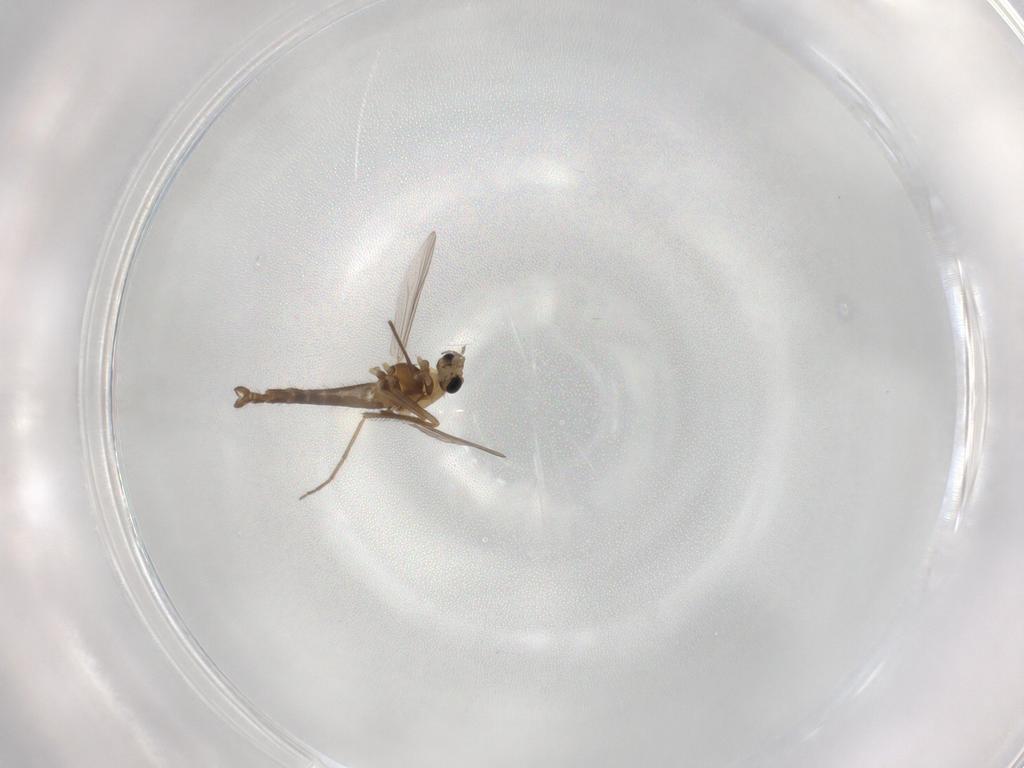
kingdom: Animalia
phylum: Arthropoda
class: Insecta
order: Diptera
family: Chironomidae
